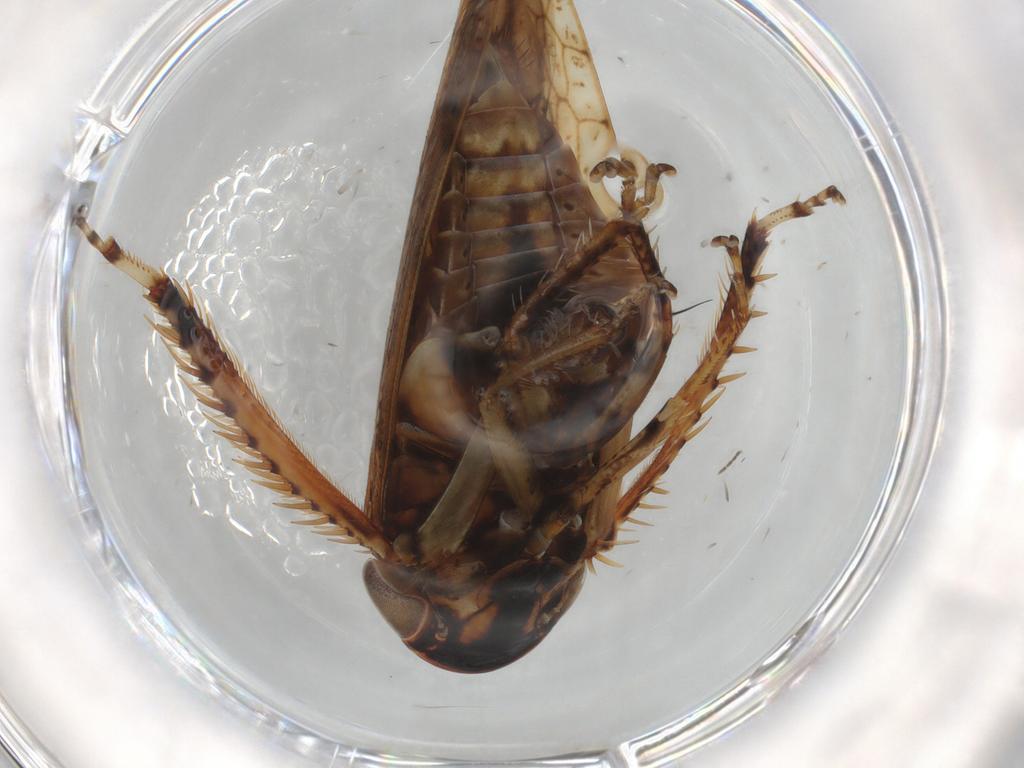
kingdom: Animalia
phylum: Arthropoda
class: Insecta
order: Hemiptera
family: Cicadellidae
